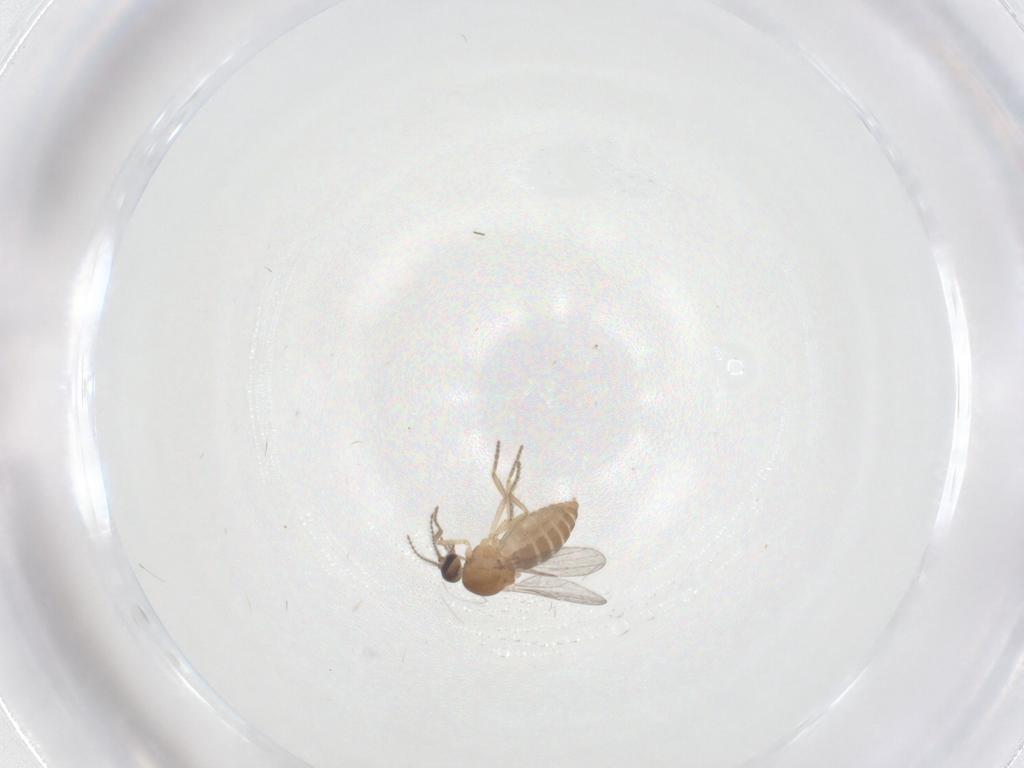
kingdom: Animalia
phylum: Arthropoda
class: Insecta
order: Diptera
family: Ceratopogonidae
